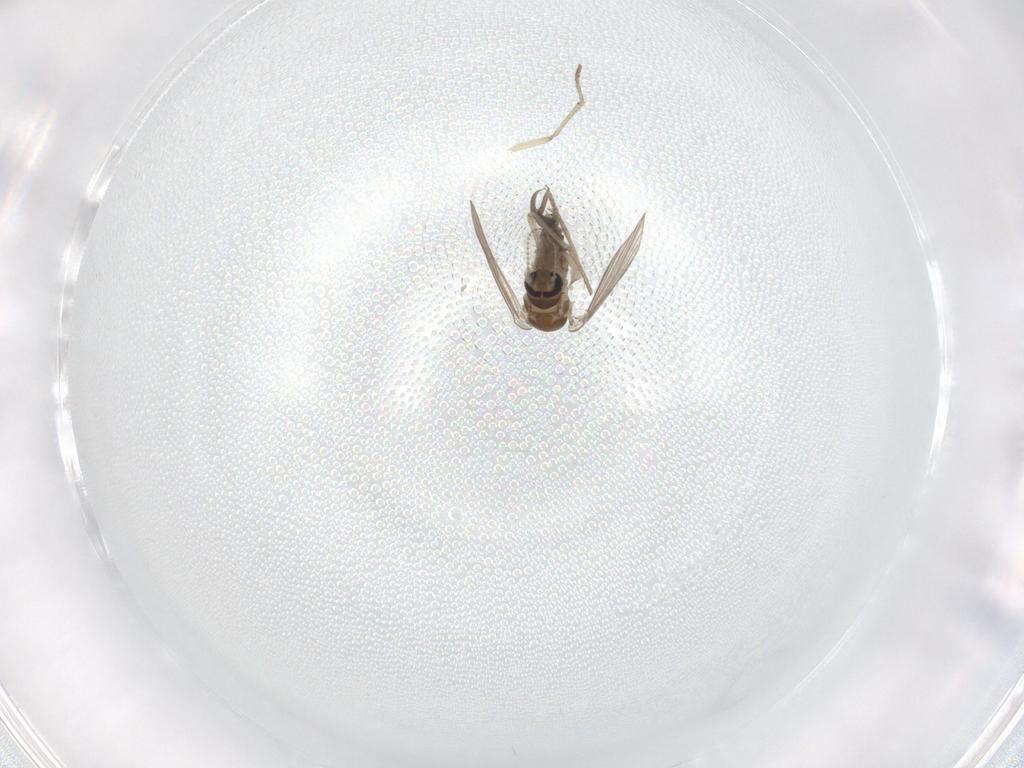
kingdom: Animalia
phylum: Arthropoda
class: Insecta
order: Diptera
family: Psychodidae
